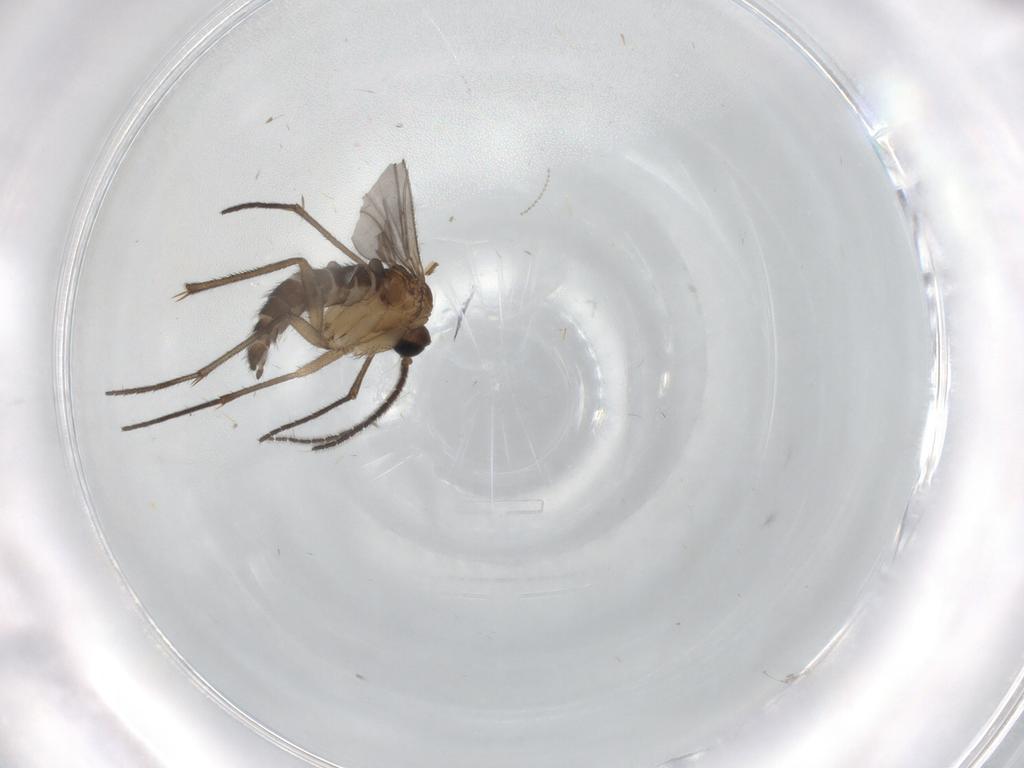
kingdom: Animalia
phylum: Arthropoda
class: Insecta
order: Diptera
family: Sciaridae
